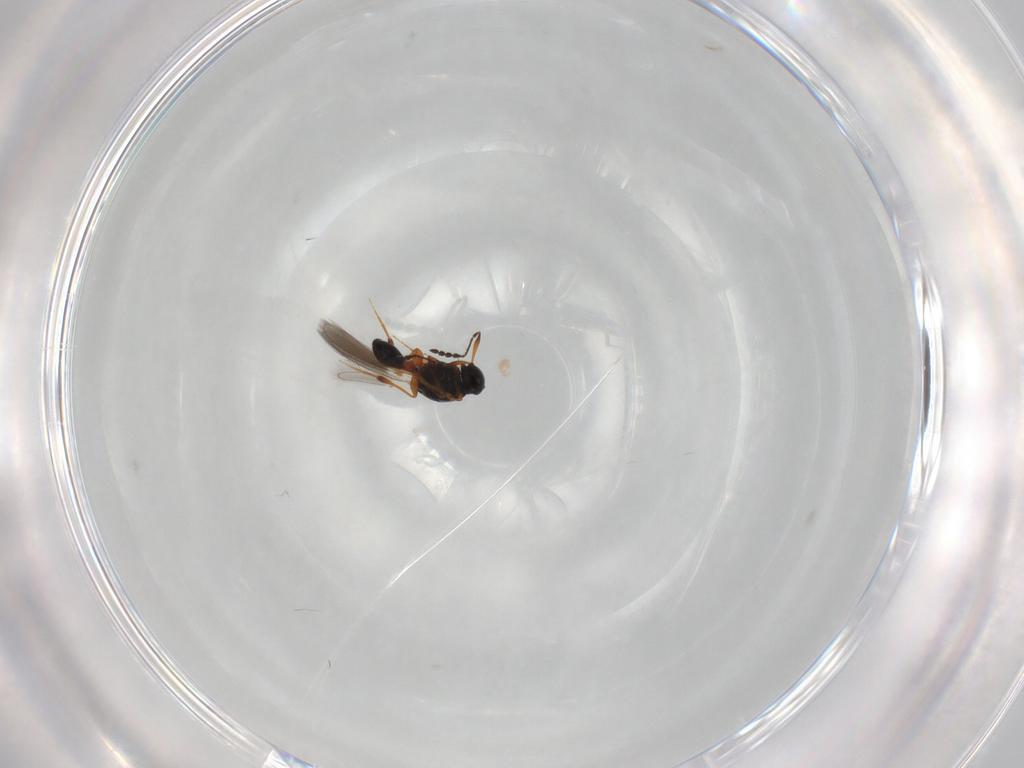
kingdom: Animalia
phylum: Arthropoda
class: Insecta
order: Hymenoptera
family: Platygastridae
